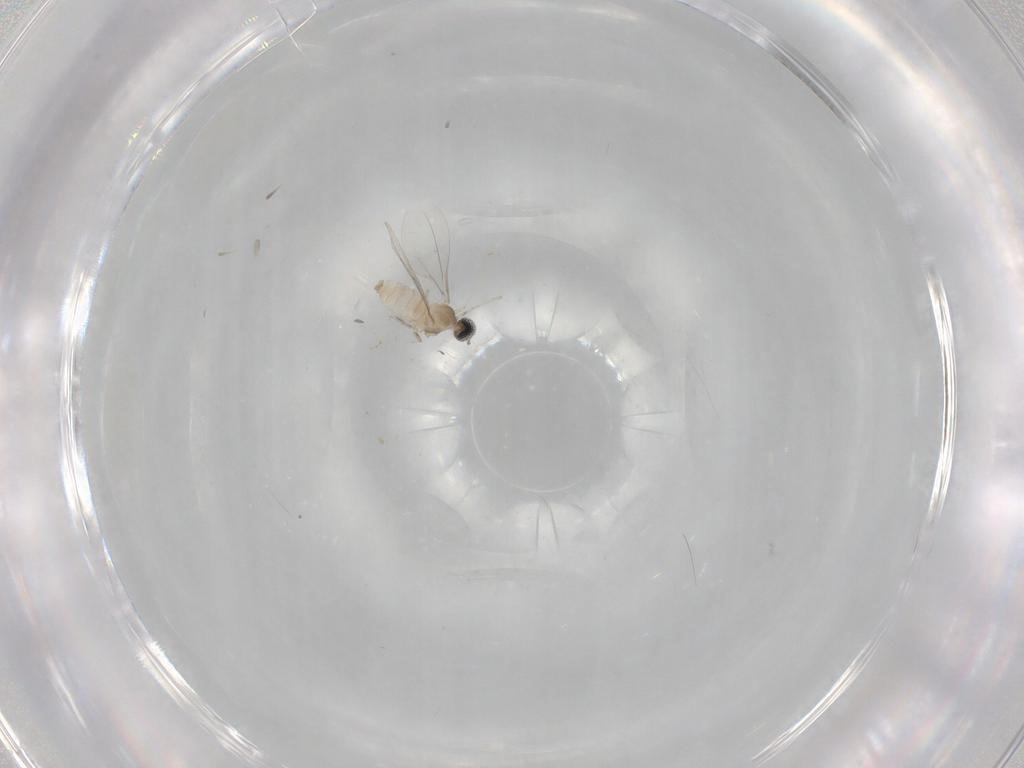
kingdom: Animalia
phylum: Arthropoda
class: Insecta
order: Diptera
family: Cecidomyiidae
